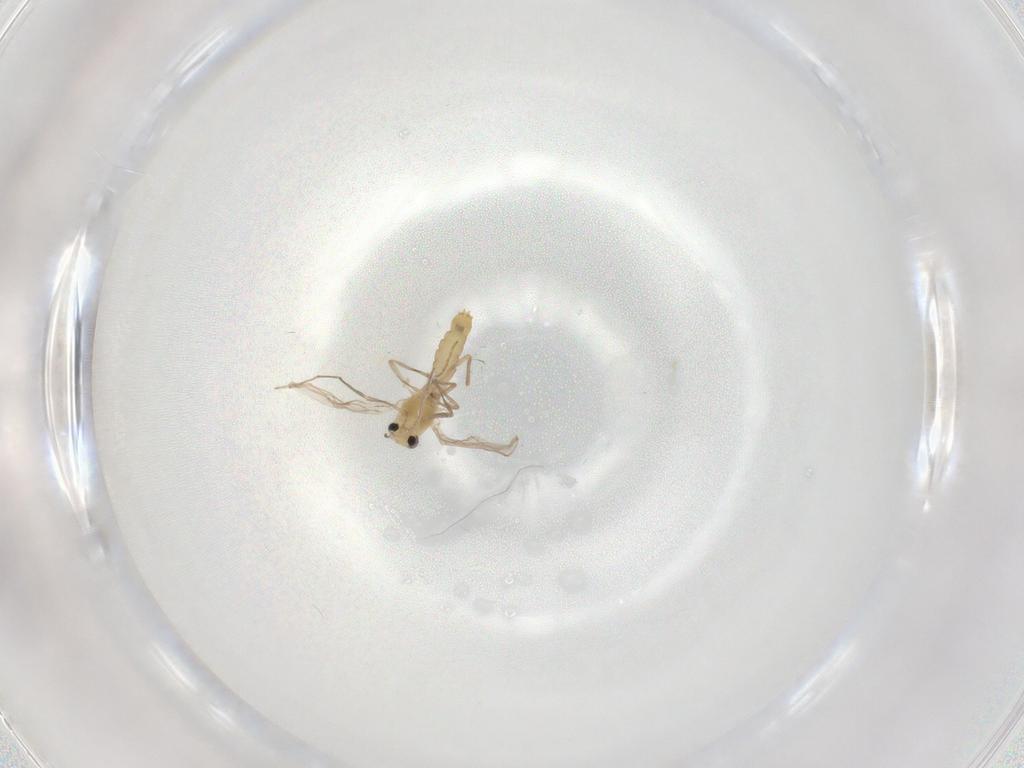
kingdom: Animalia
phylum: Arthropoda
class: Insecta
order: Diptera
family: Chironomidae
